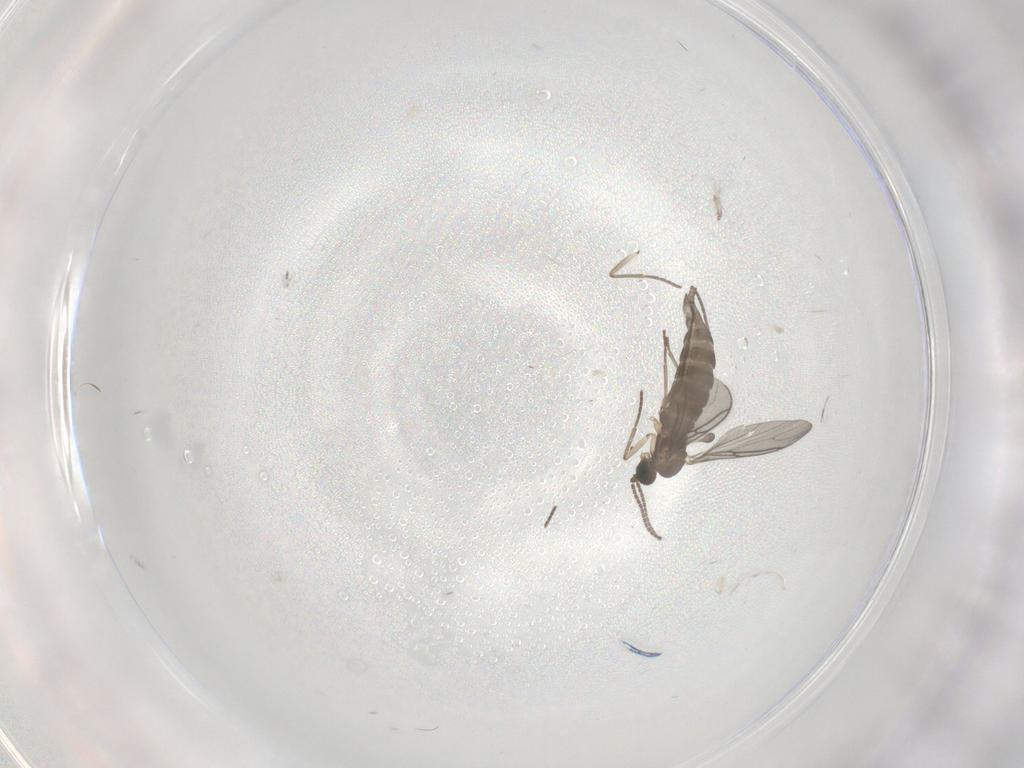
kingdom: Animalia
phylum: Arthropoda
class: Insecta
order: Diptera
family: Sciaridae
